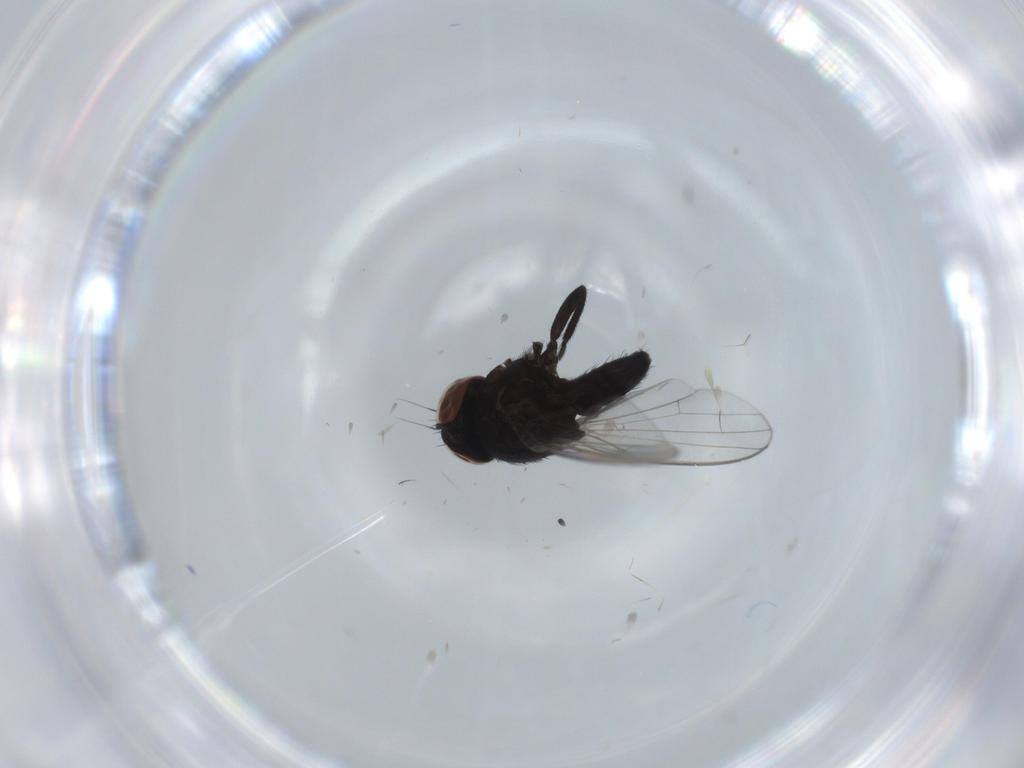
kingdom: Animalia
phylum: Arthropoda
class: Insecta
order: Diptera
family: Milichiidae
